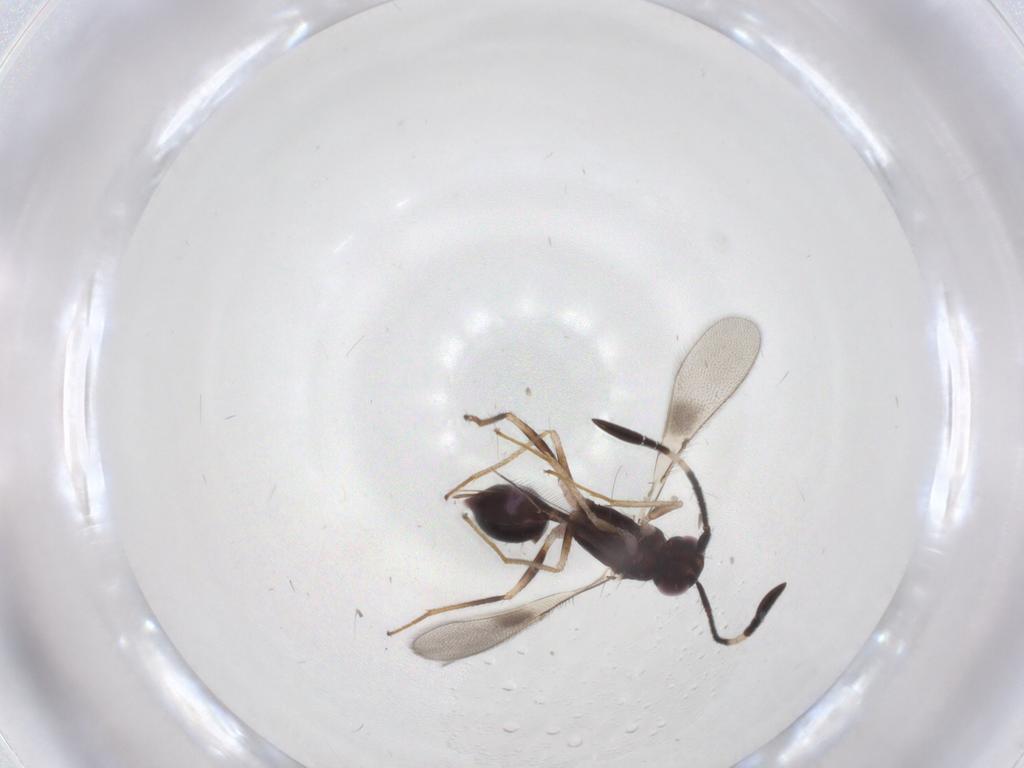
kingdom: Animalia
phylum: Arthropoda
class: Insecta
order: Hymenoptera
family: Mymaridae
